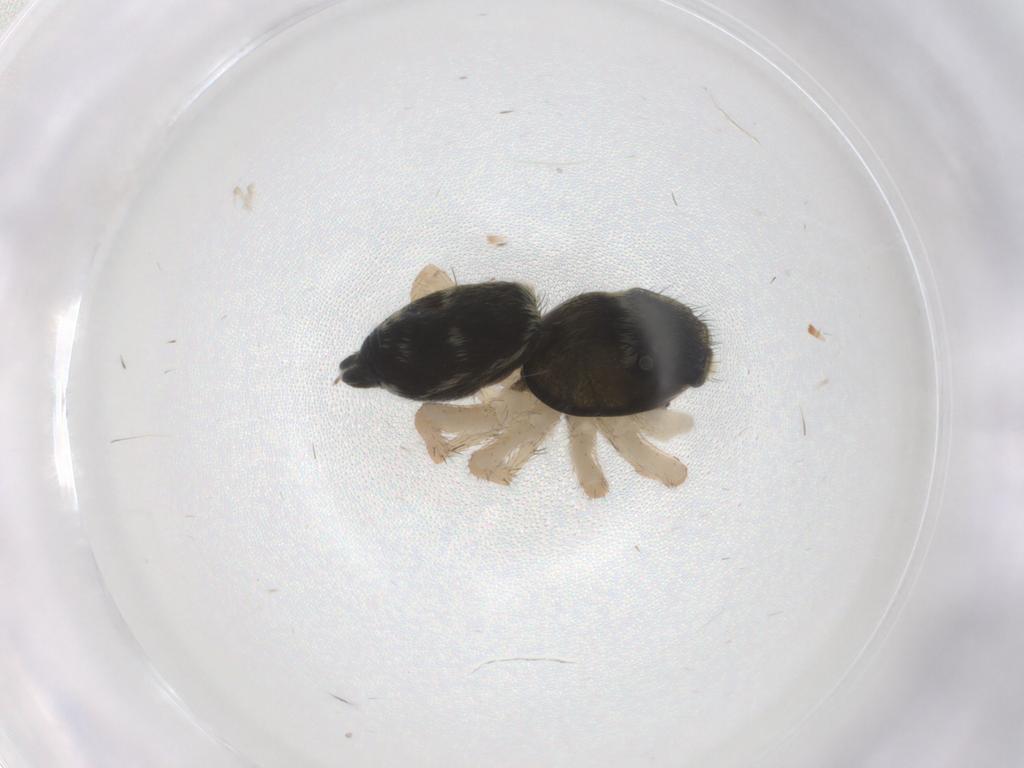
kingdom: Animalia
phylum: Arthropoda
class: Arachnida
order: Araneae
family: Salticidae
